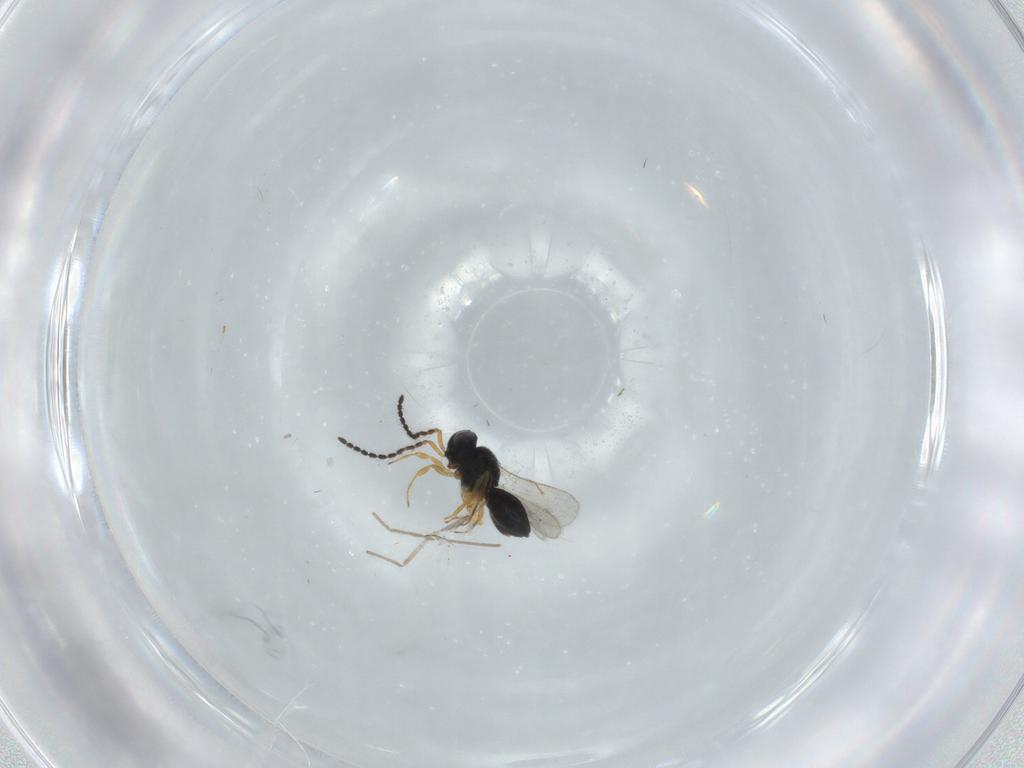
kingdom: Animalia
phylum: Arthropoda
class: Insecta
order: Hymenoptera
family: Scelionidae
